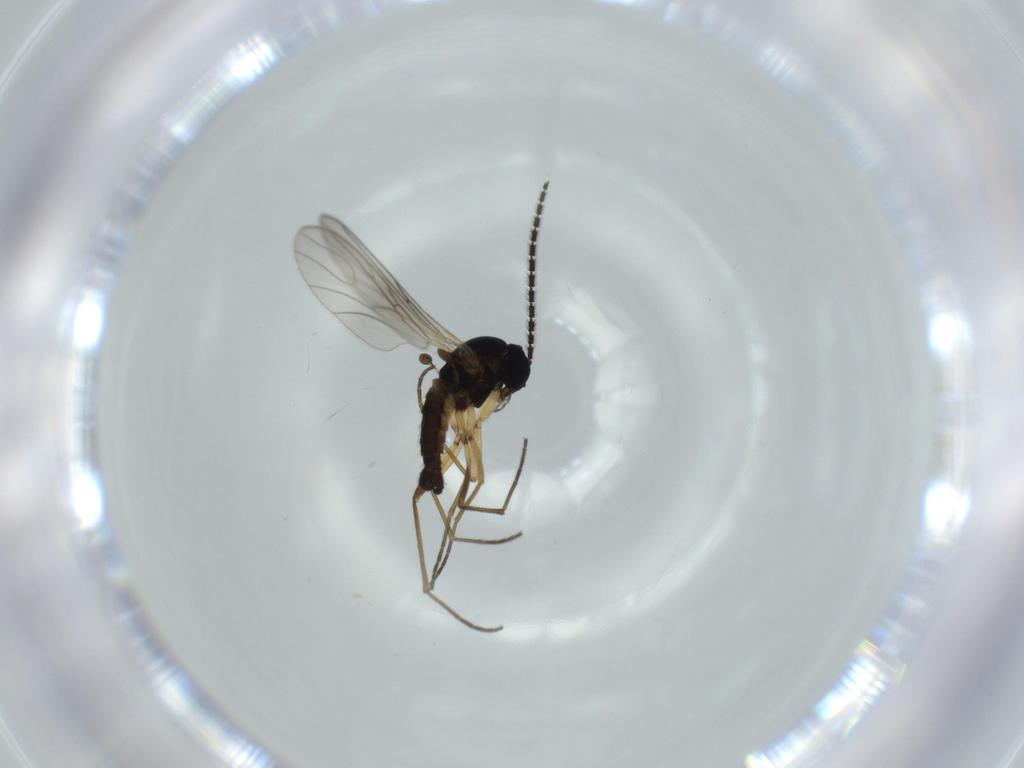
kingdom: Animalia
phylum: Arthropoda
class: Insecta
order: Diptera
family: Sciaridae
